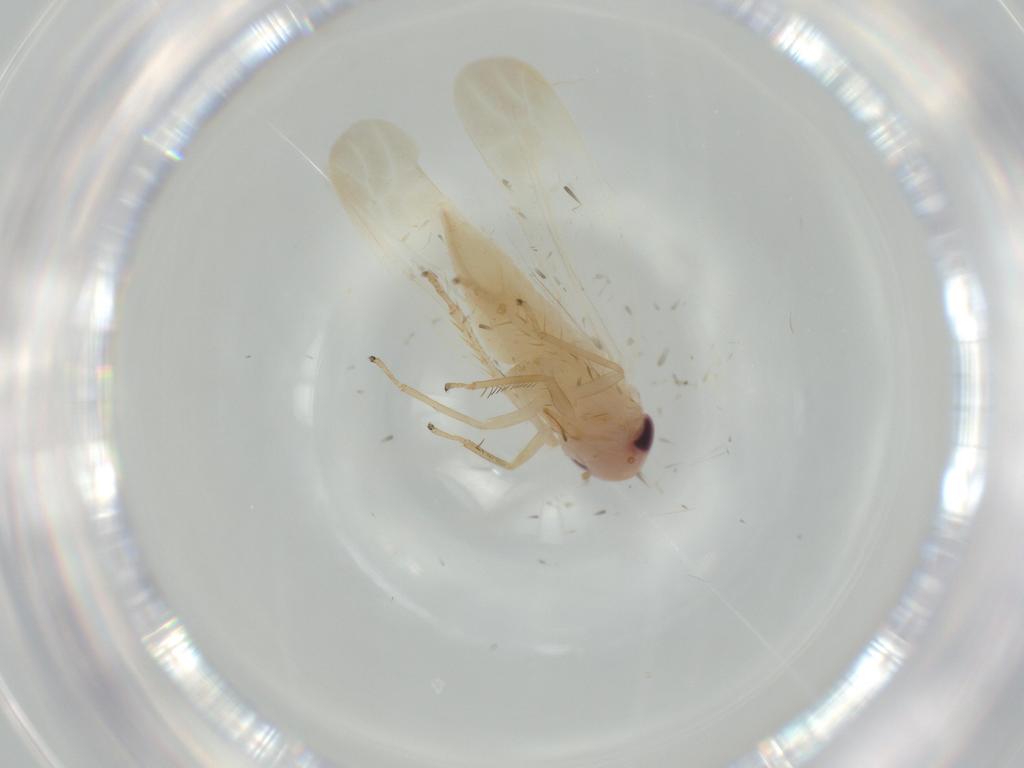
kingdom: Animalia
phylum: Arthropoda
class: Insecta
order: Hemiptera
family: Cicadellidae
